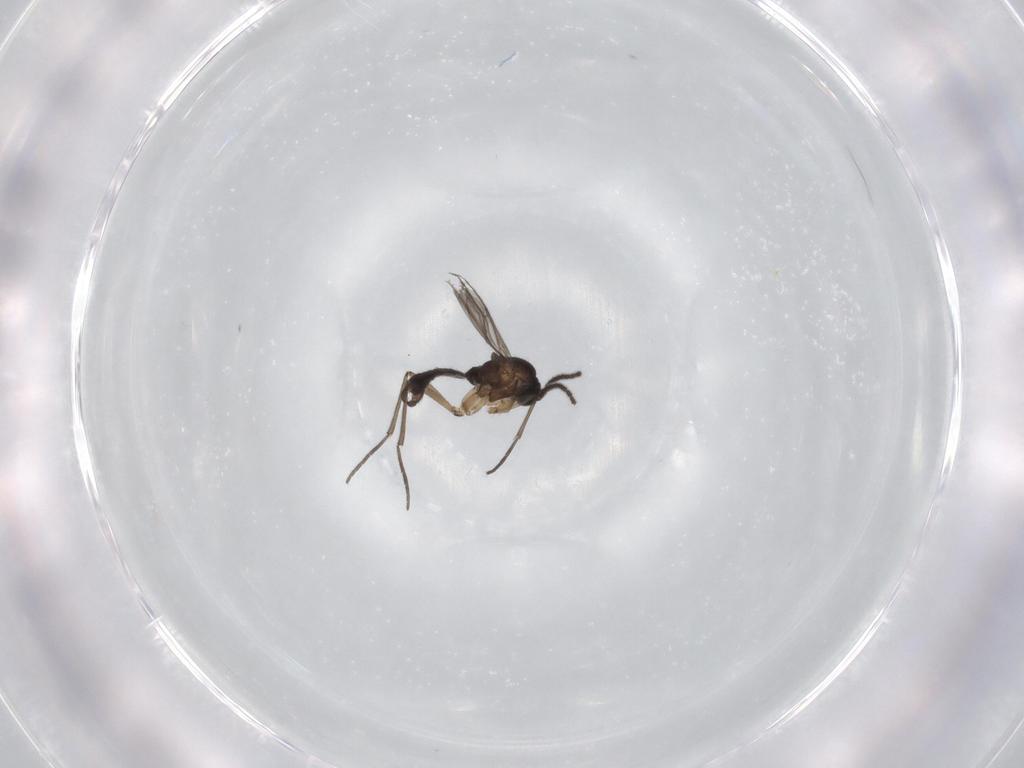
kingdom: Animalia
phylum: Arthropoda
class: Insecta
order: Diptera
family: Sciaridae
